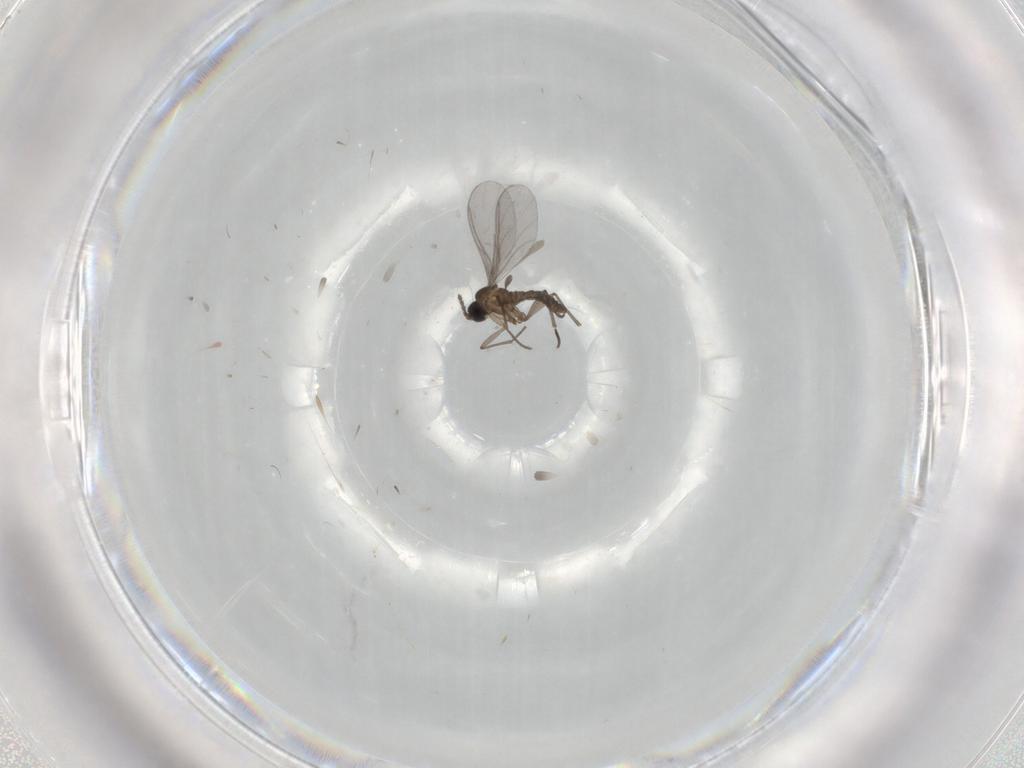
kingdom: Animalia
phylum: Arthropoda
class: Insecta
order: Diptera
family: Sciaridae
